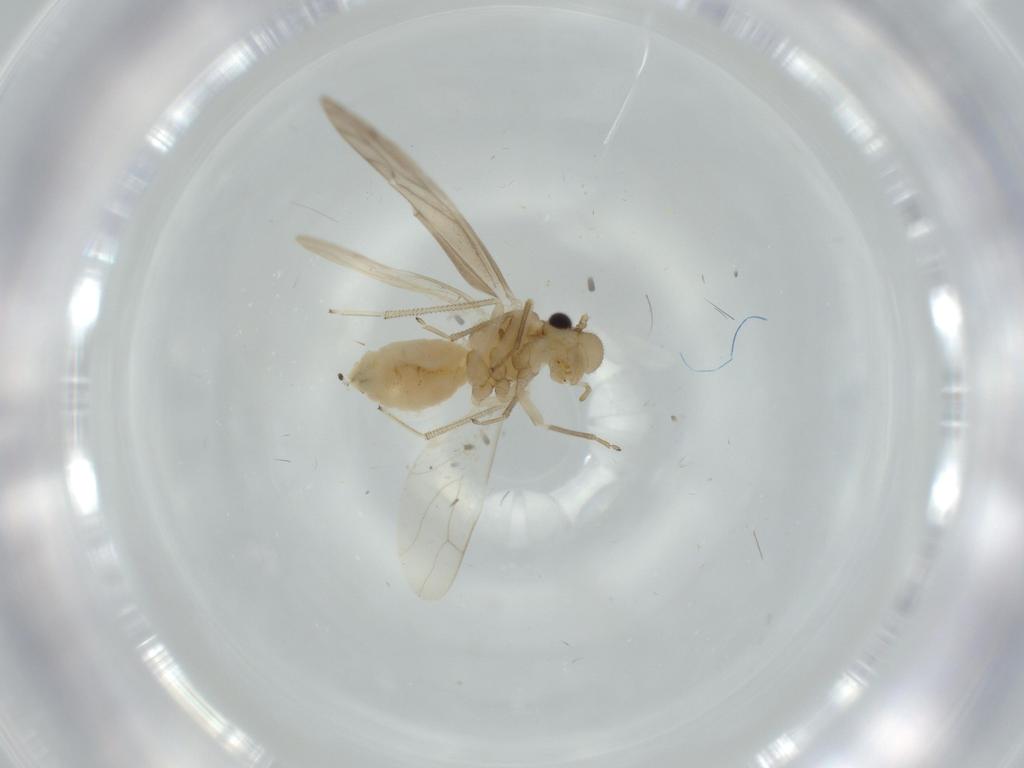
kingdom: Animalia
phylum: Arthropoda
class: Insecta
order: Psocodea
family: Caeciliusidae
